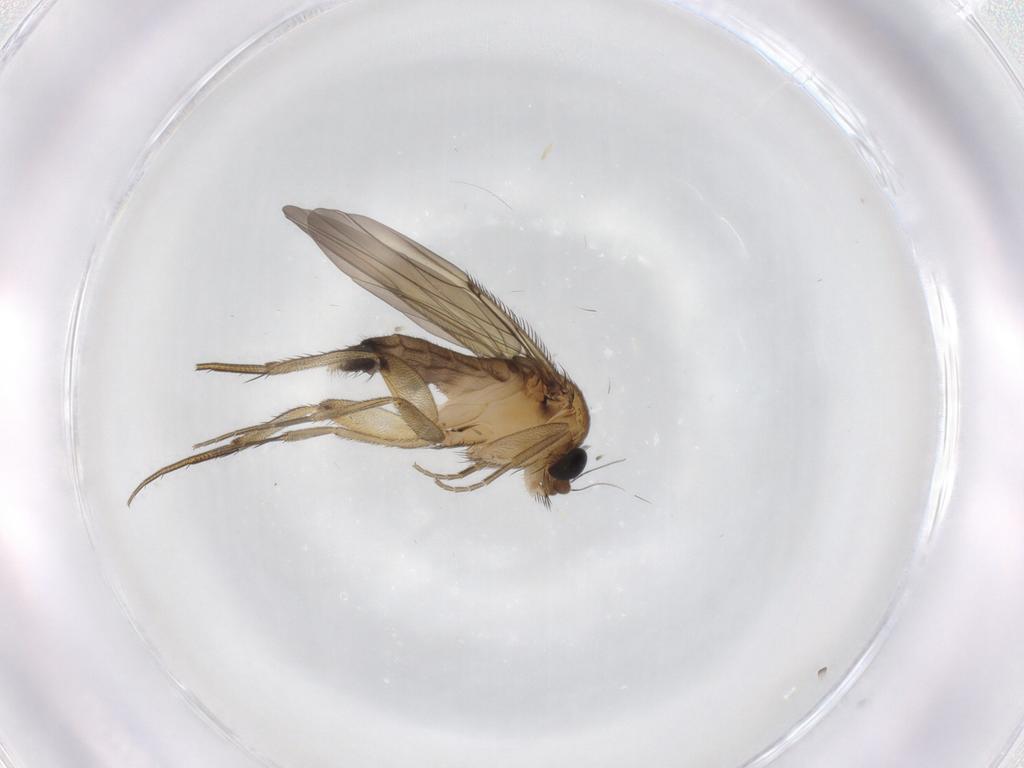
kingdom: Animalia
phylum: Arthropoda
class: Insecta
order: Diptera
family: Phoridae
